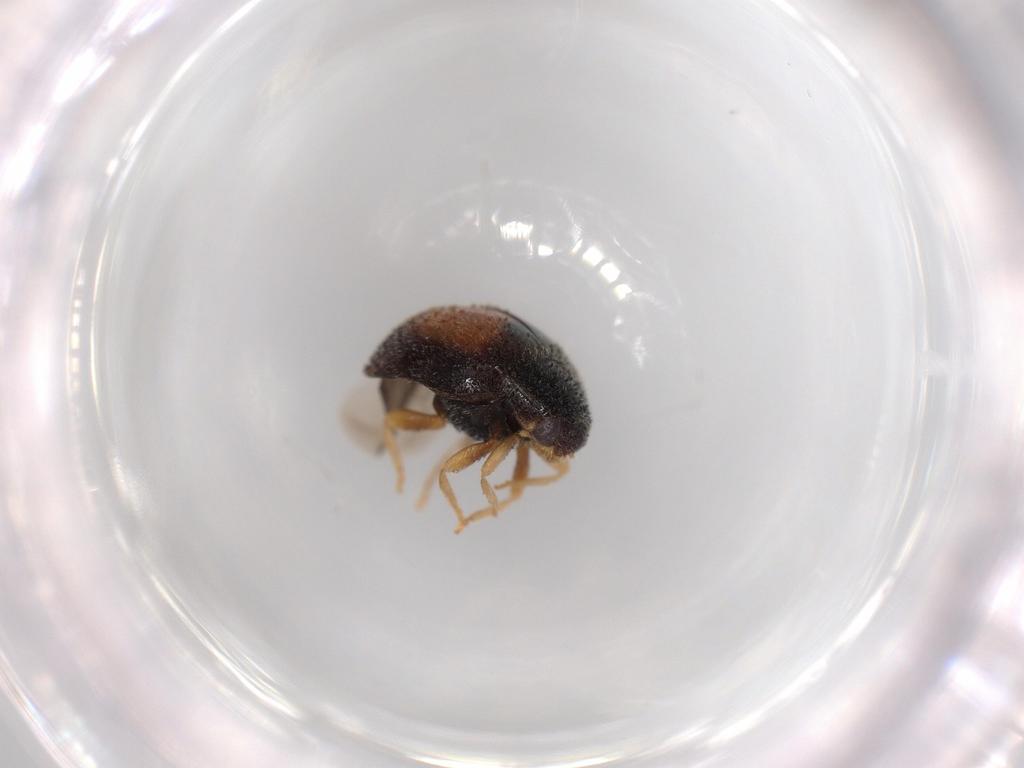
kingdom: Animalia
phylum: Arthropoda
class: Insecta
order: Coleoptera
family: Coccinellidae
